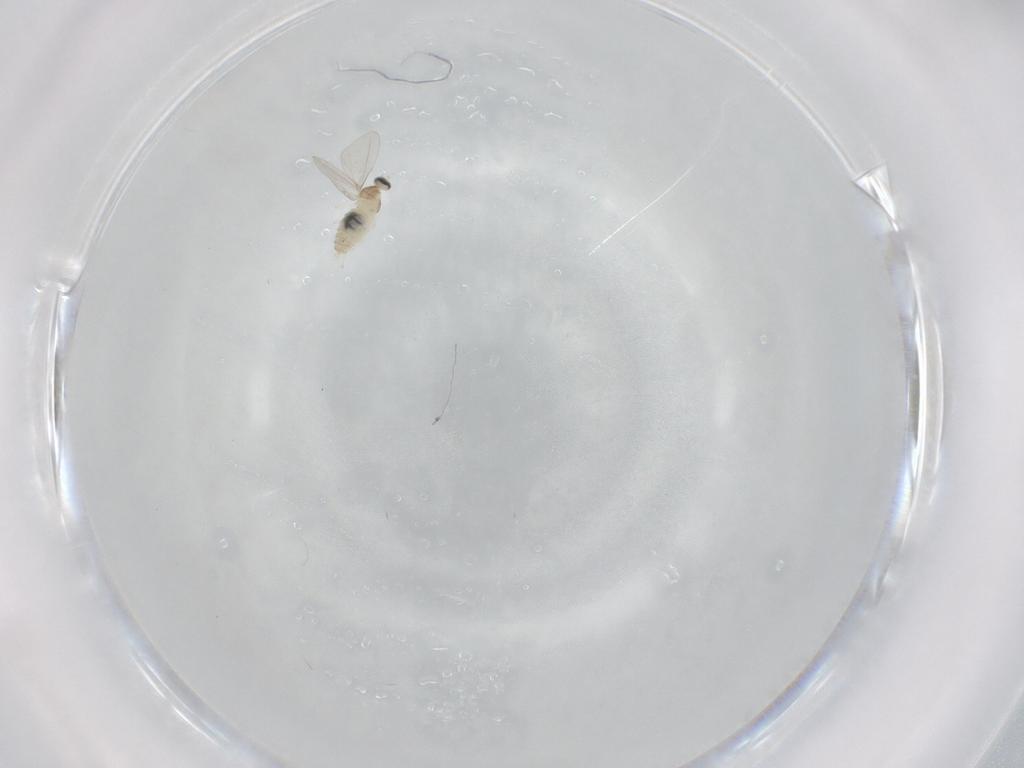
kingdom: Animalia
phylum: Arthropoda
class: Insecta
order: Diptera
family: Cecidomyiidae
